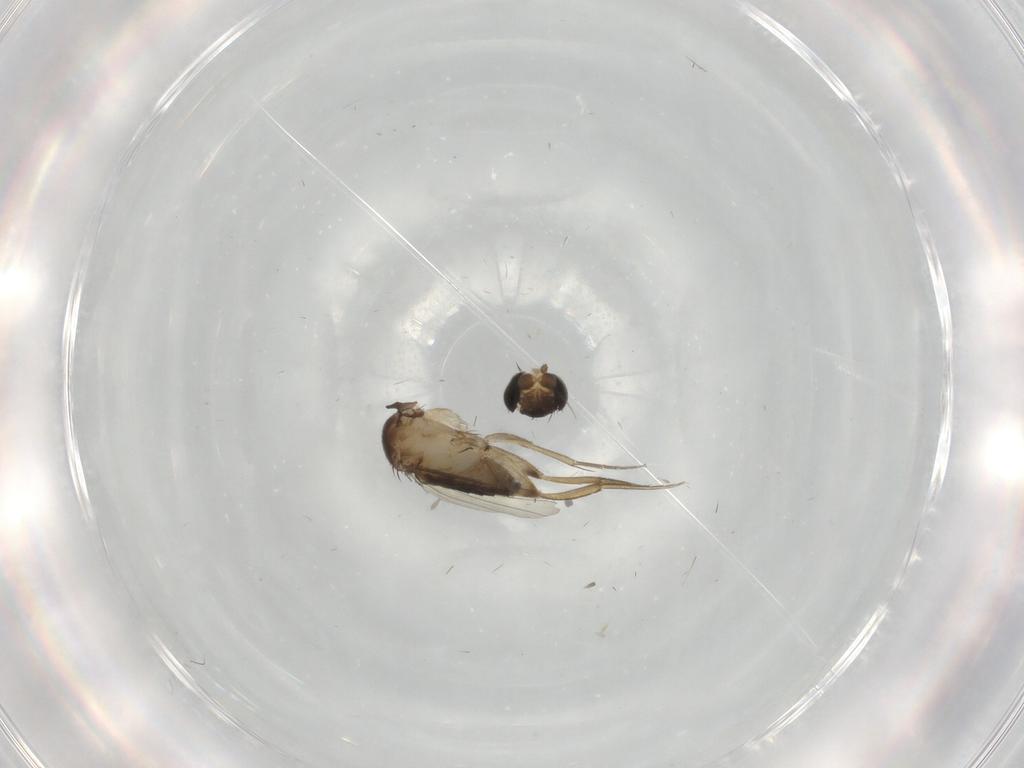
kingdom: Animalia
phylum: Arthropoda
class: Insecta
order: Diptera
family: Phoridae
